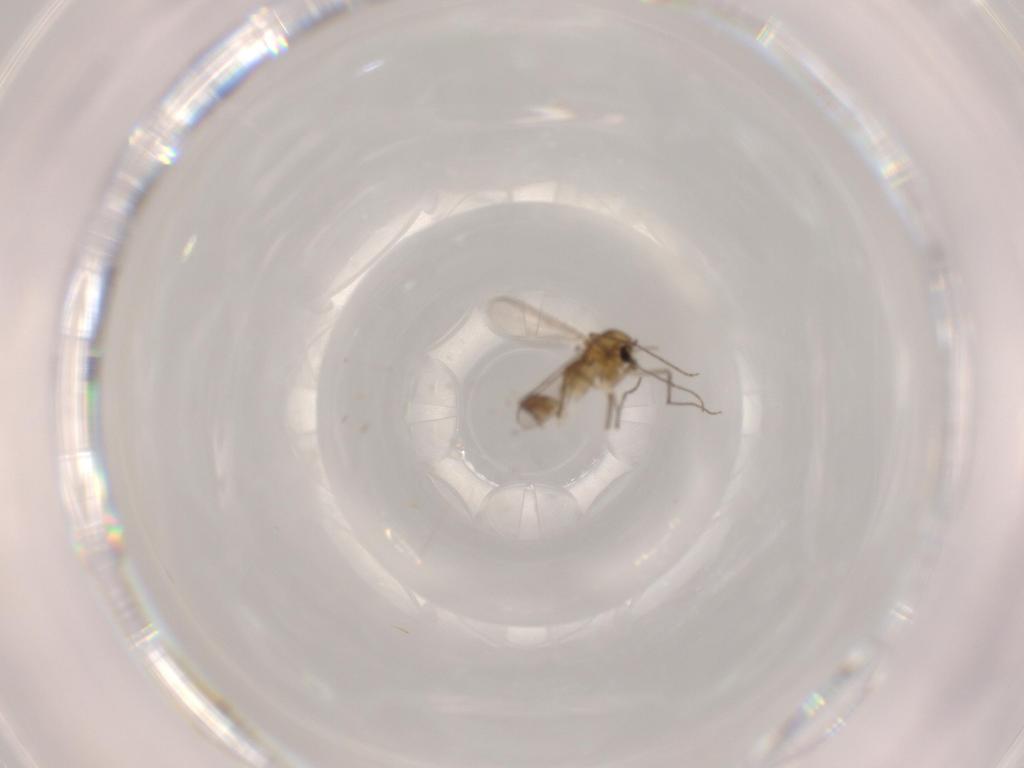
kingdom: Animalia
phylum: Arthropoda
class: Insecta
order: Diptera
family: Chironomidae
